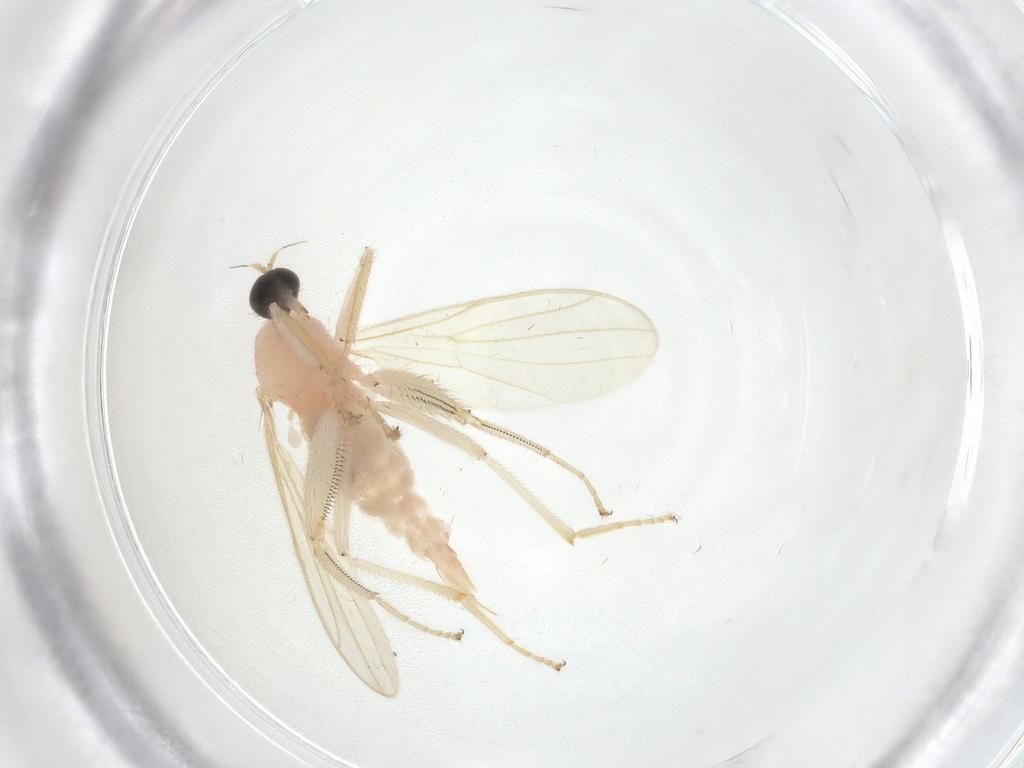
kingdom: Animalia
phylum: Arthropoda
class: Insecta
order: Diptera
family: Hybotidae
